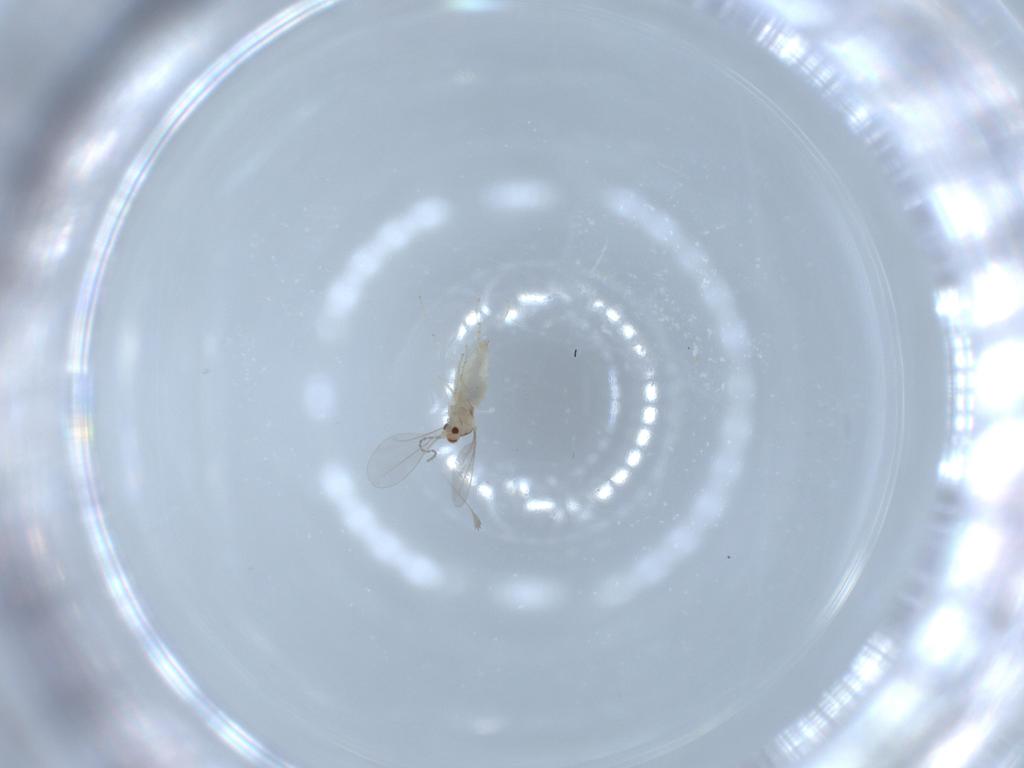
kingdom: Animalia
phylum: Arthropoda
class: Insecta
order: Diptera
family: Cecidomyiidae
